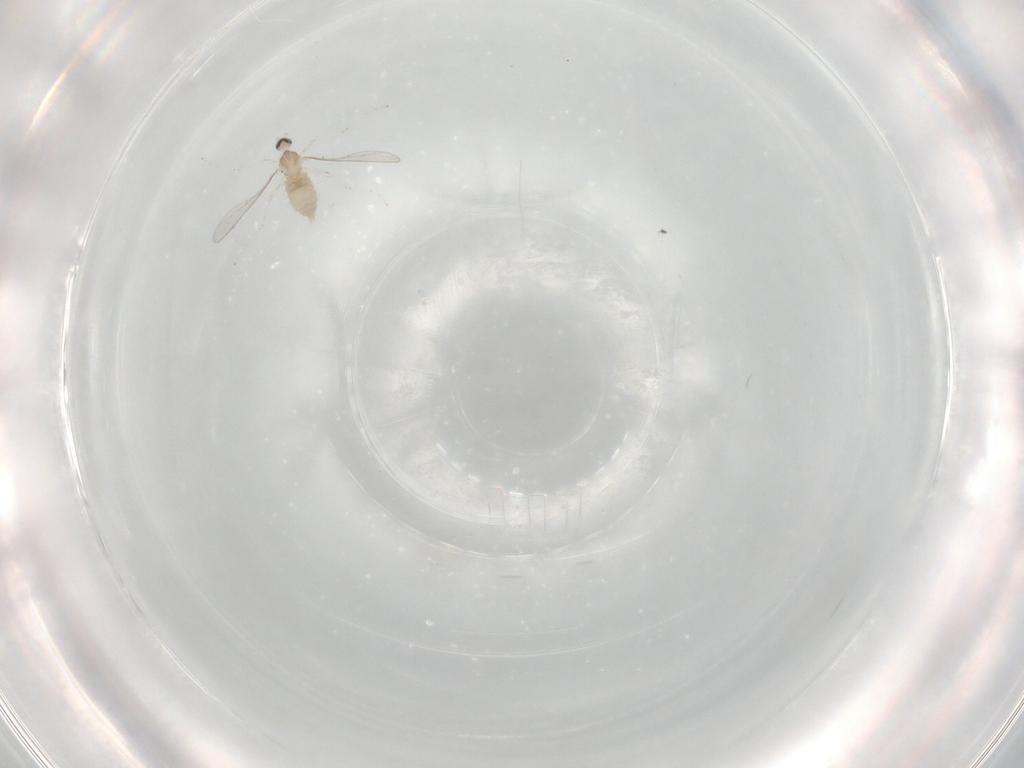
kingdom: Animalia
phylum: Arthropoda
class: Insecta
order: Diptera
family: Cecidomyiidae
